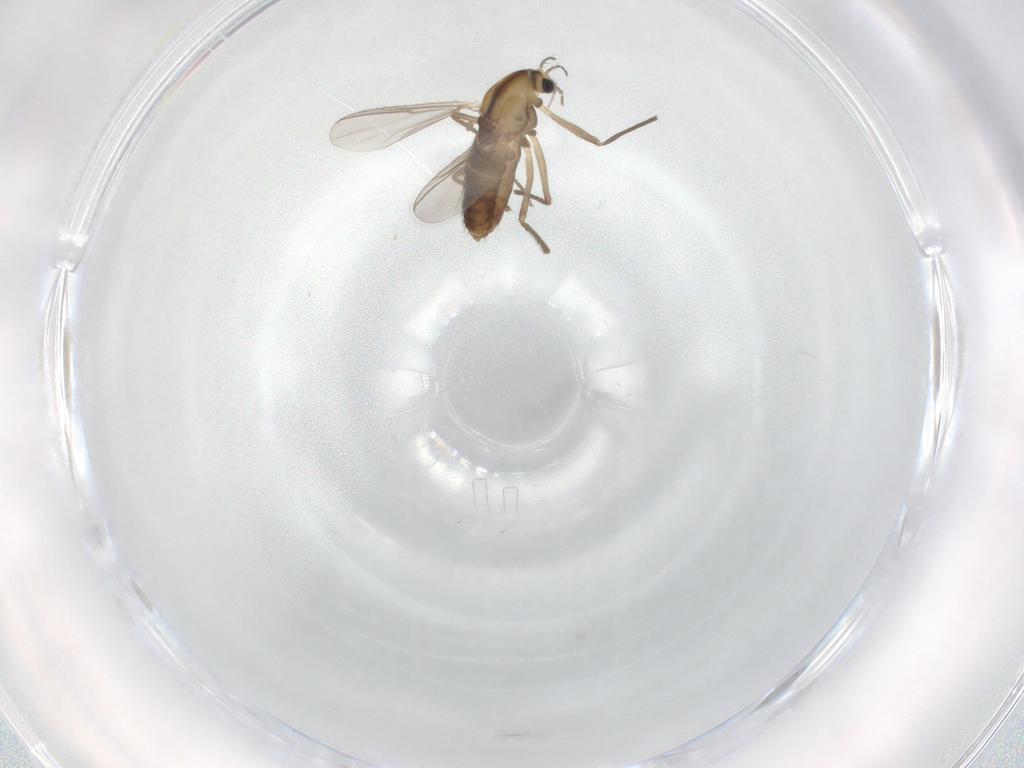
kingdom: Animalia
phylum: Arthropoda
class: Insecta
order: Diptera
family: Chironomidae
